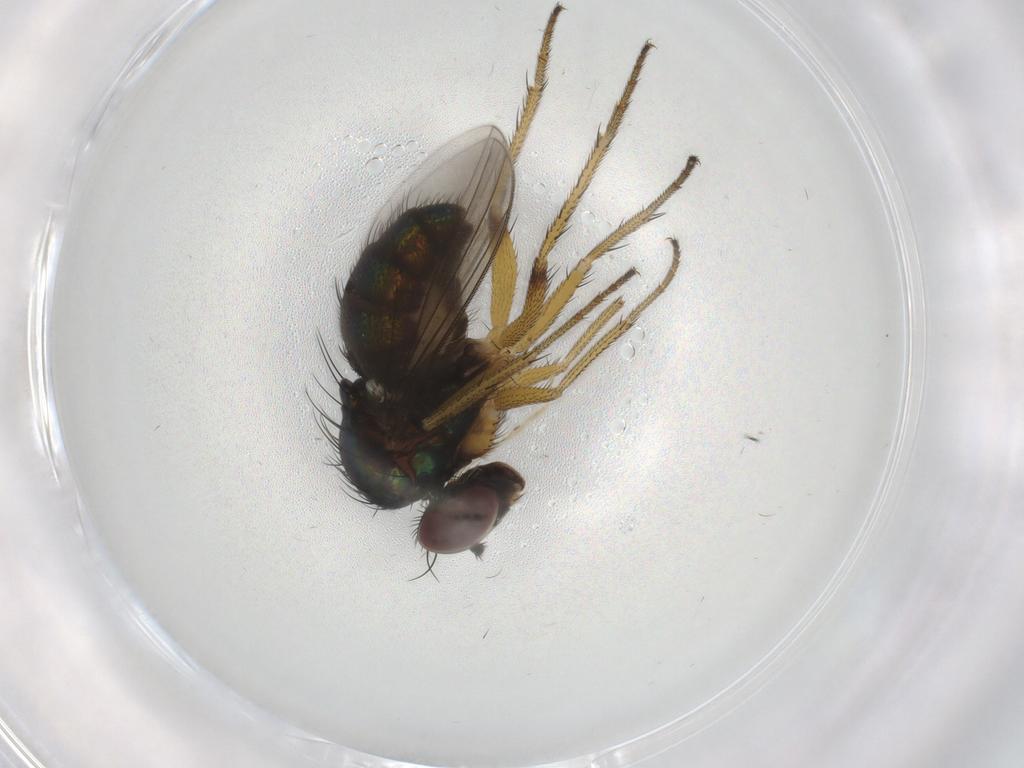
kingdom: Animalia
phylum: Arthropoda
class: Insecta
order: Diptera
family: Dolichopodidae
